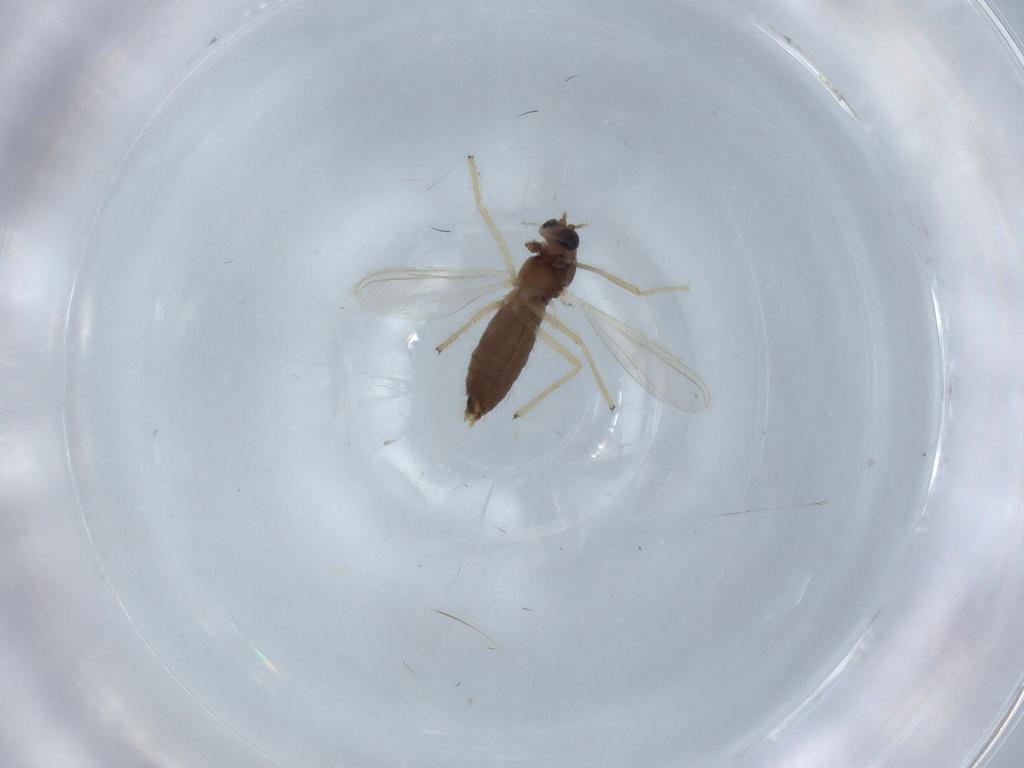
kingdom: Animalia
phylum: Arthropoda
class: Insecta
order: Diptera
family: Chironomidae
